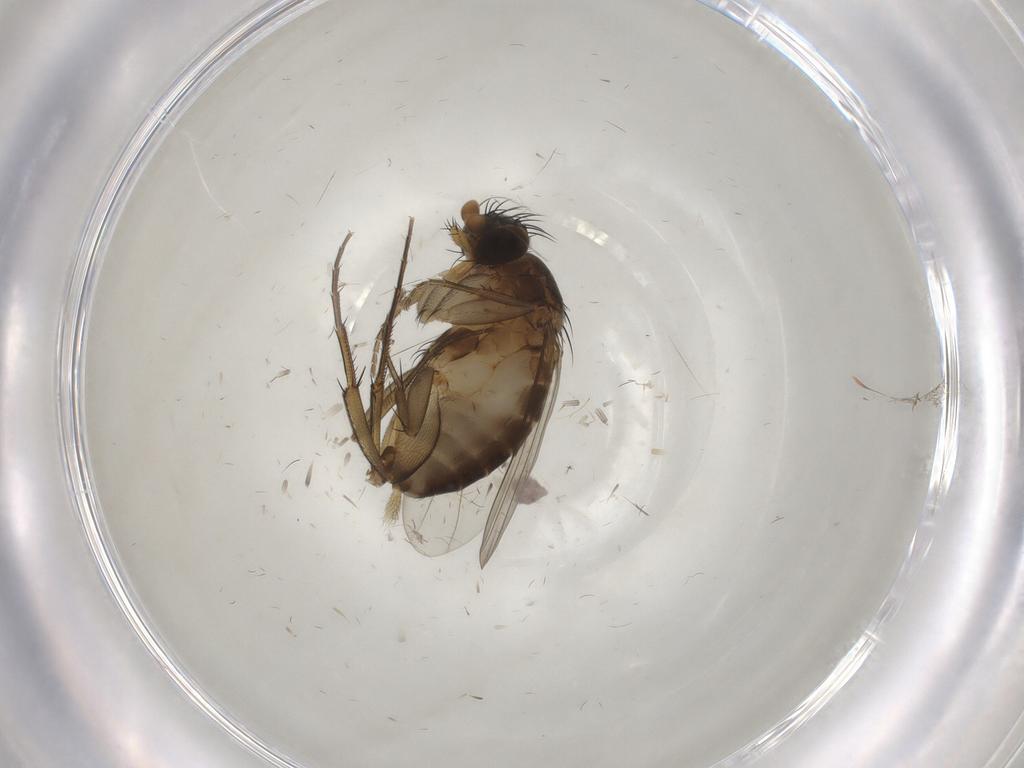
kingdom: Animalia
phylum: Arthropoda
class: Insecta
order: Diptera
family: Phoridae
